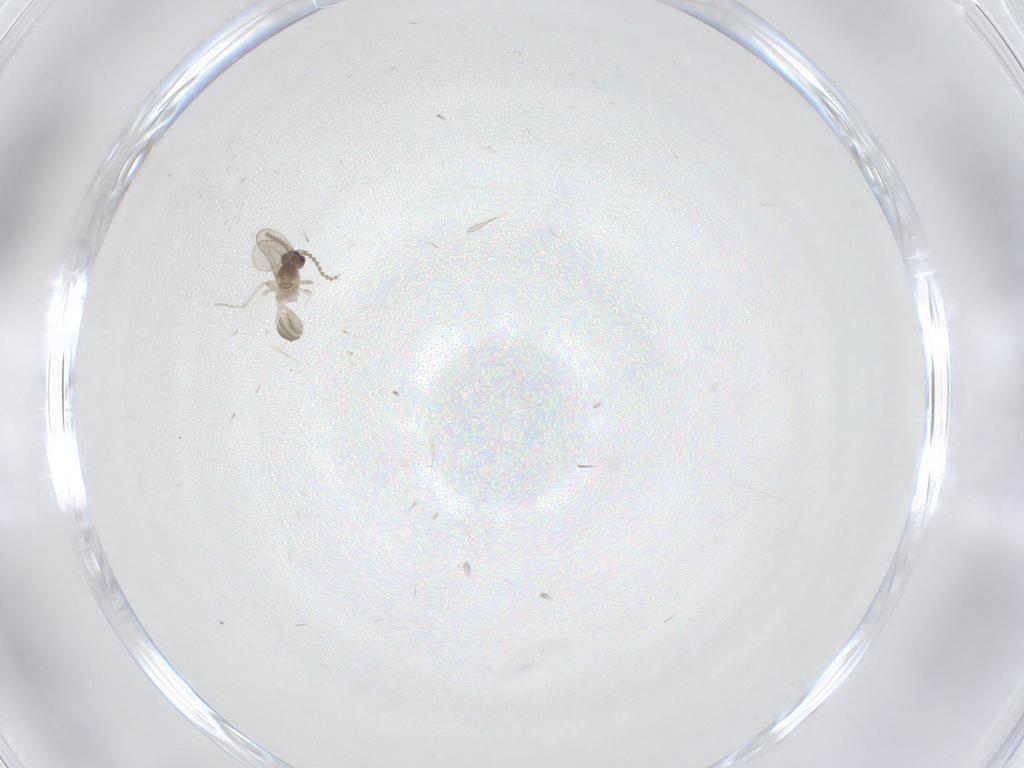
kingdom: Animalia
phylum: Arthropoda
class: Insecta
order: Diptera
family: Cecidomyiidae
